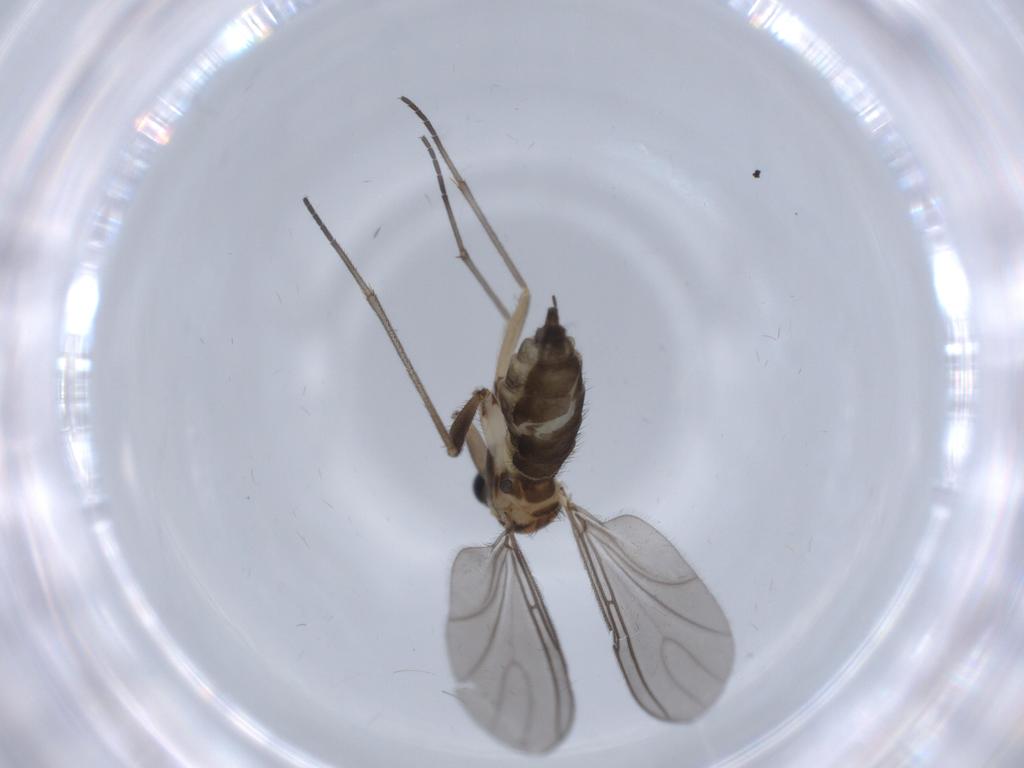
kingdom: Animalia
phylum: Arthropoda
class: Insecta
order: Diptera
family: Sciaridae
